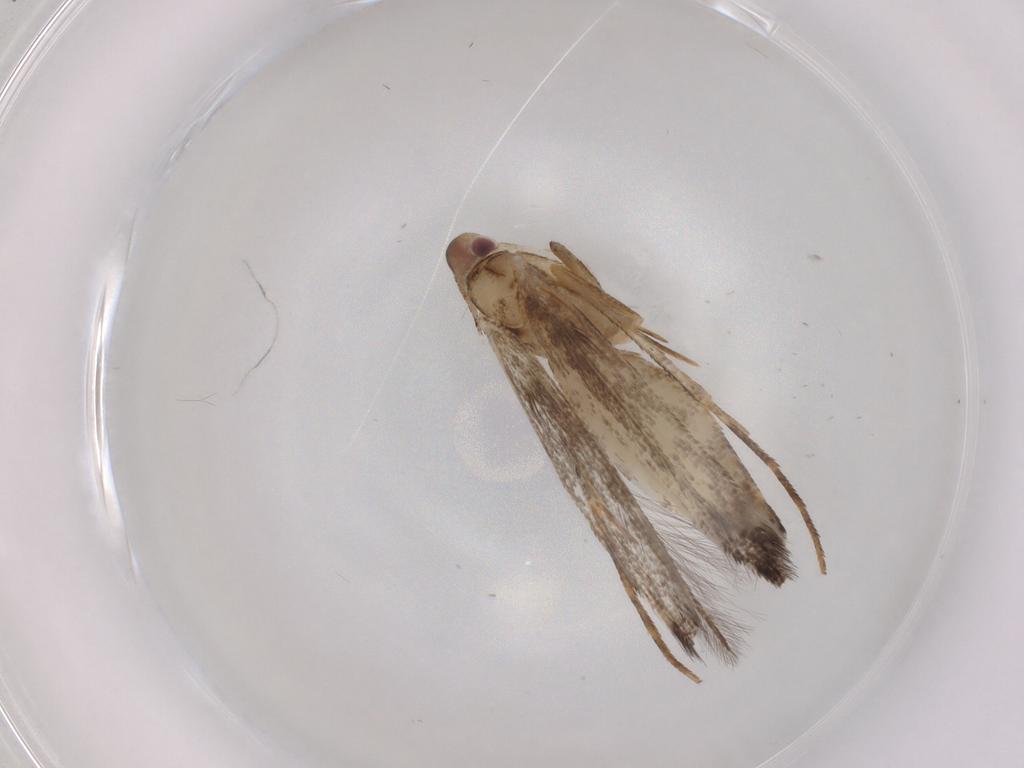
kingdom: Animalia
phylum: Arthropoda
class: Insecta
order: Lepidoptera
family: Cosmopterigidae
